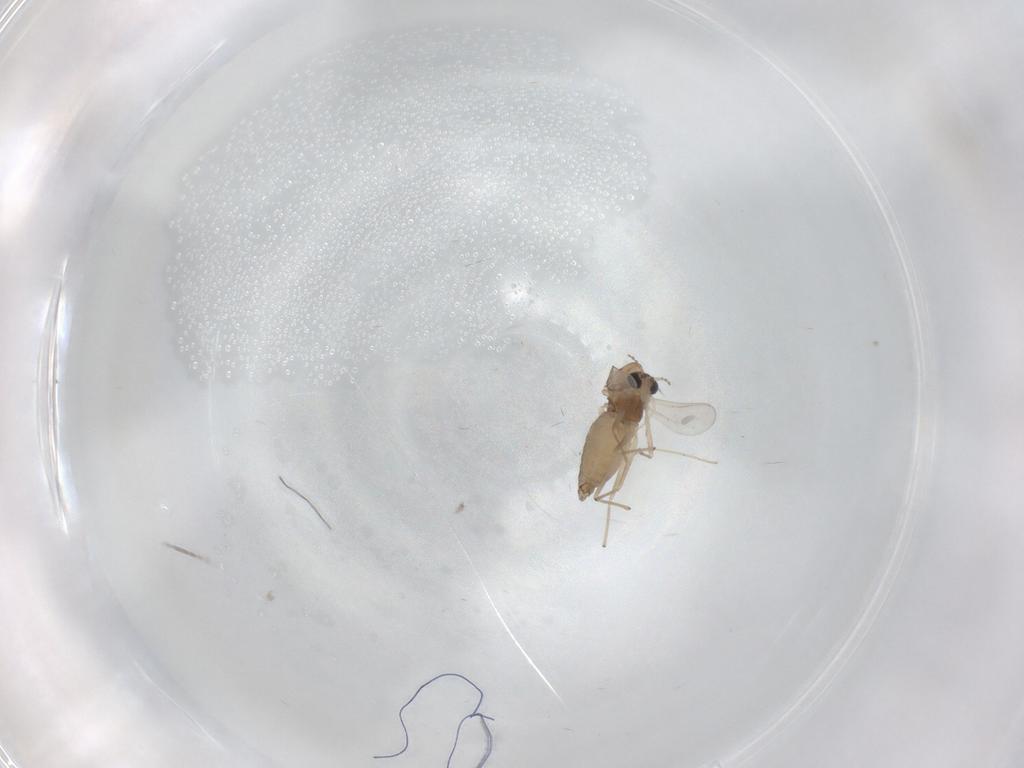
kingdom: Animalia
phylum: Arthropoda
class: Insecta
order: Diptera
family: Chironomidae
